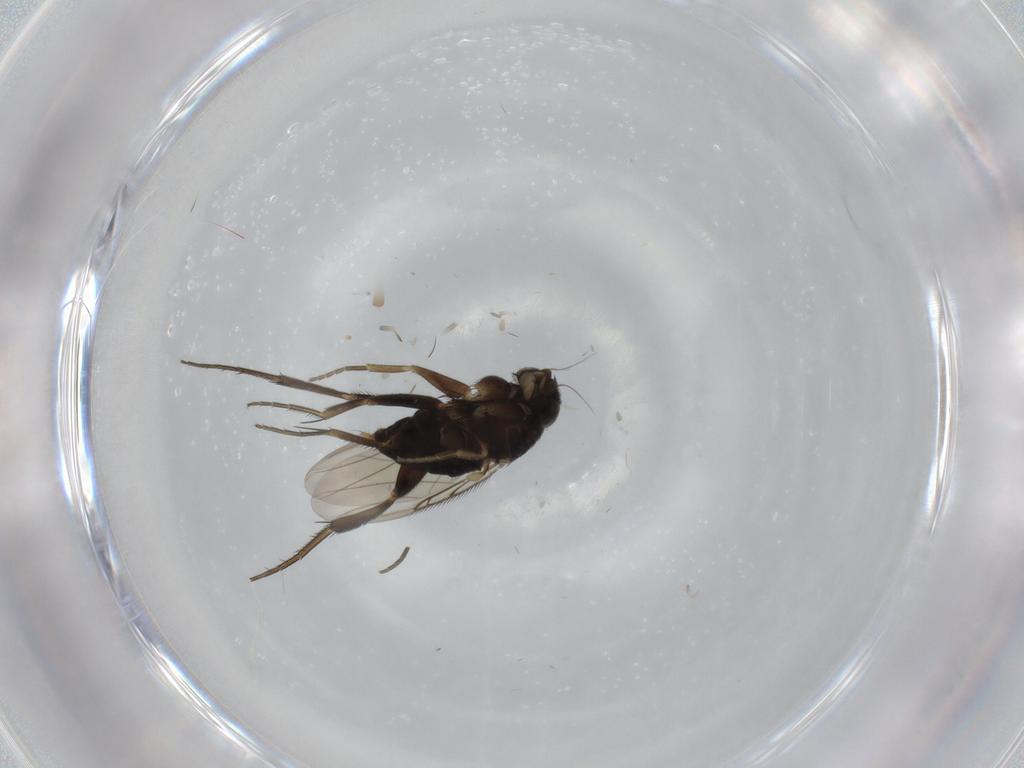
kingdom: Animalia
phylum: Arthropoda
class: Insecta
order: Diptera
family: Phoridae
